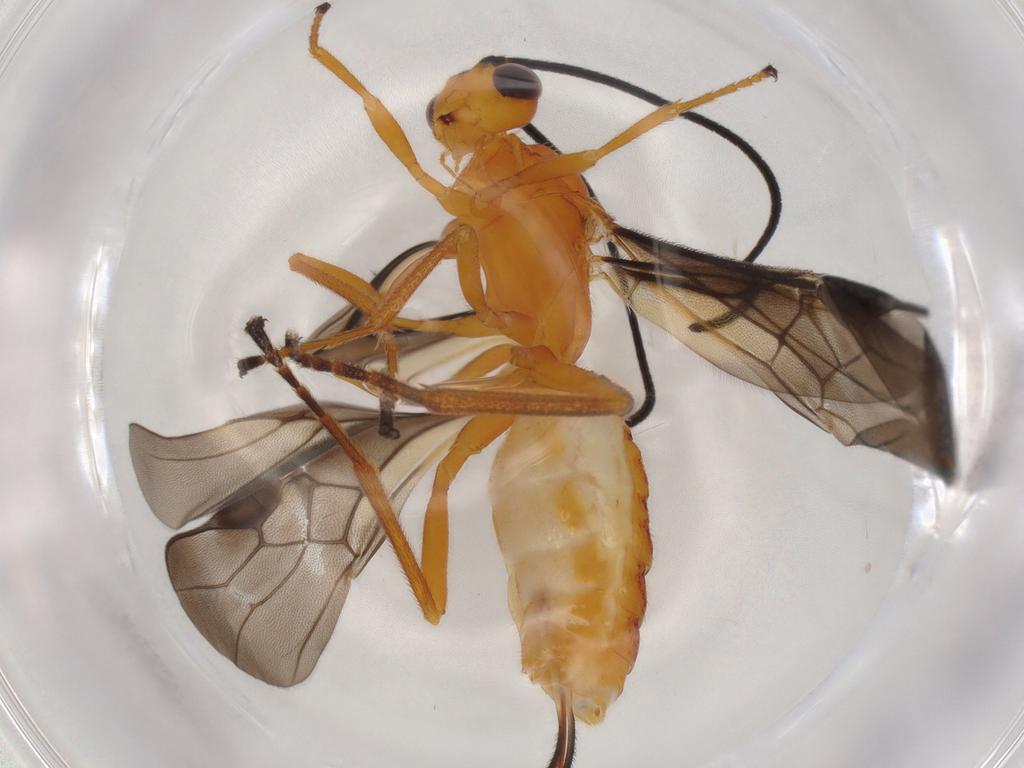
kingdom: Animalia
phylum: Arthropoda
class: Insecta
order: Hymenoptera
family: Braconidae
